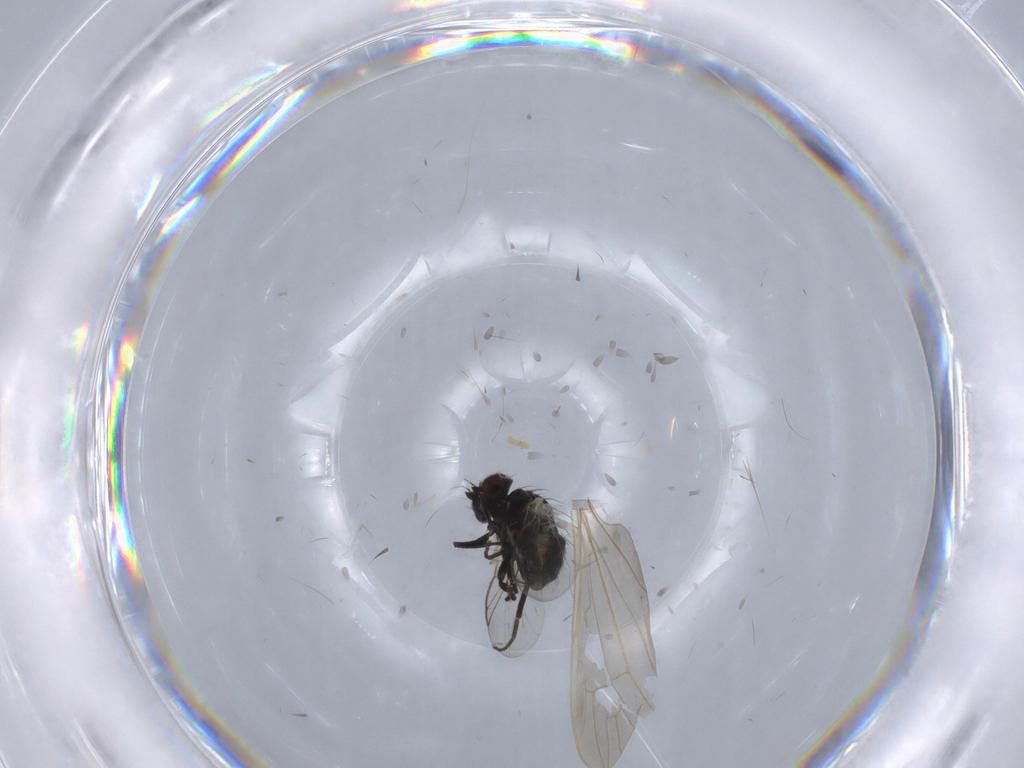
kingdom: Animalia
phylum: Arthropoda
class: Insecta
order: Diptera
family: Agromyzidae
